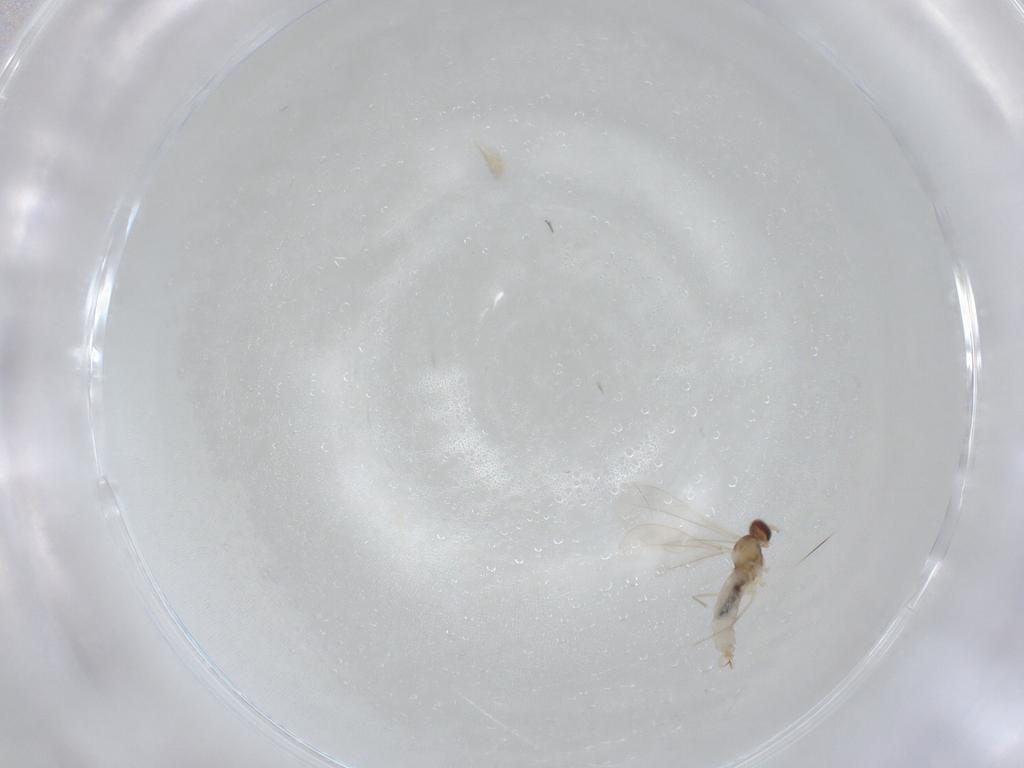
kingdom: Animalia
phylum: Arthropoda
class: Insecta
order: Diptera
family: Cecidomyiidae
